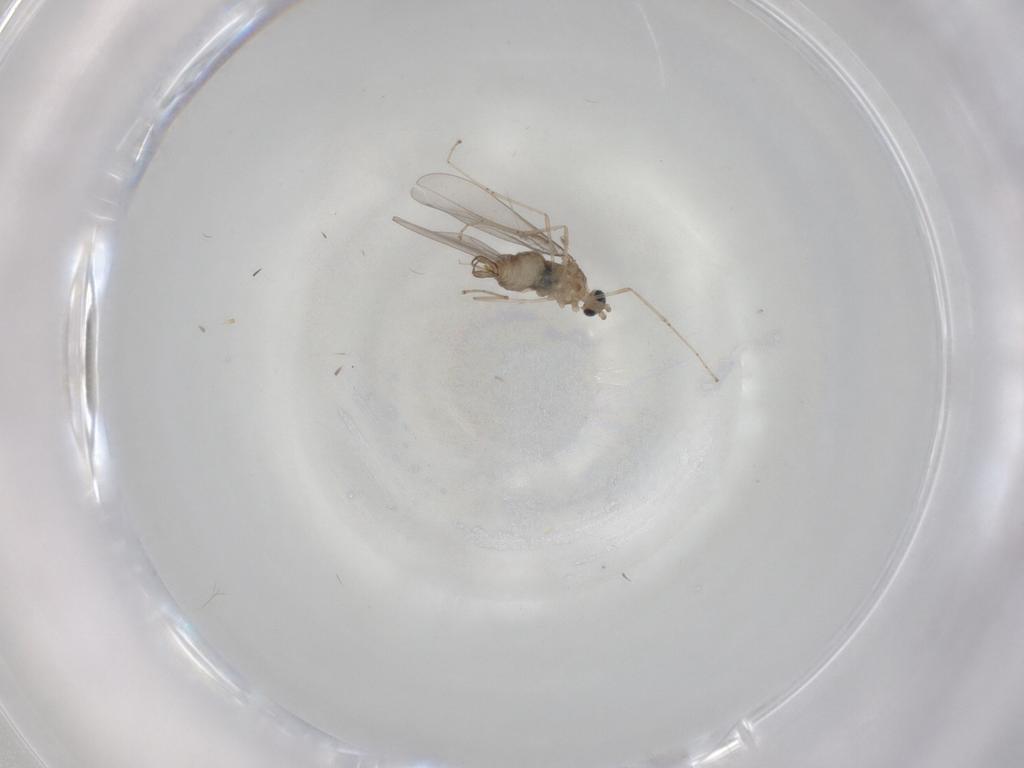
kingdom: Animalia
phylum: Arthropoda
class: Insecta
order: Diptera
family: Cecidomyiidae
